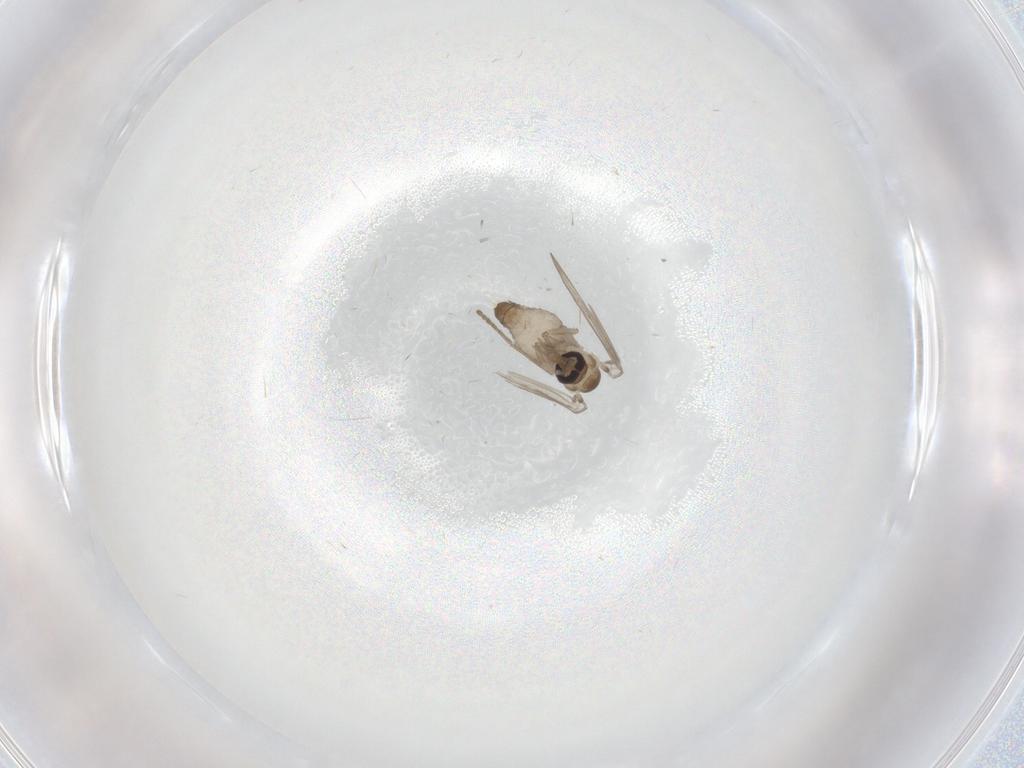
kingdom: Animalia
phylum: Arthropoda
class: Insecta
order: Diptera
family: Psychodidae
